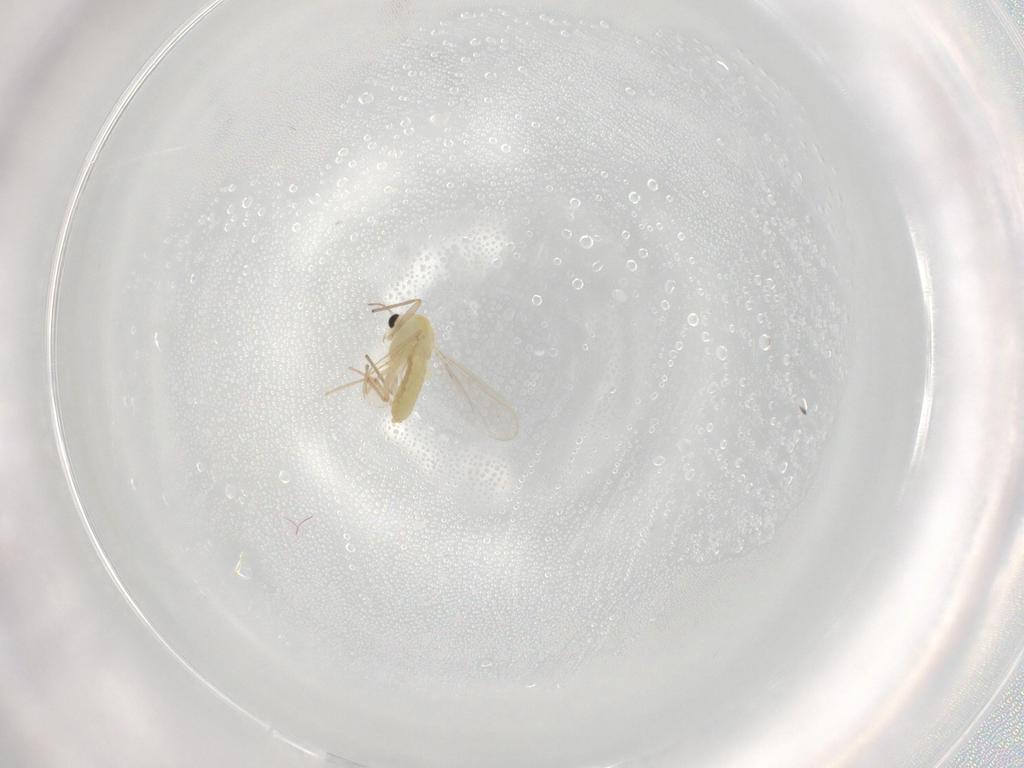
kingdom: Animalia
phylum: Arthropoda
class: Insecta
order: Diptera
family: Chironomidae
